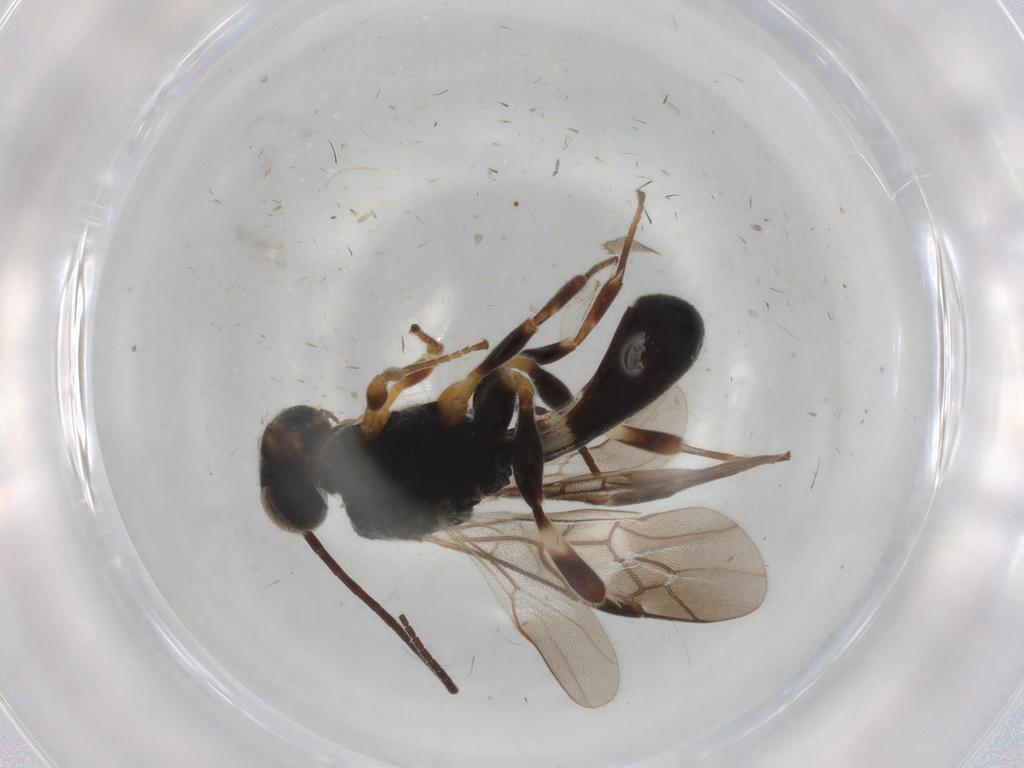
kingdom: Animalia
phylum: Arthropoda
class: Insecta
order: Hymenoptera
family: Braconidae
